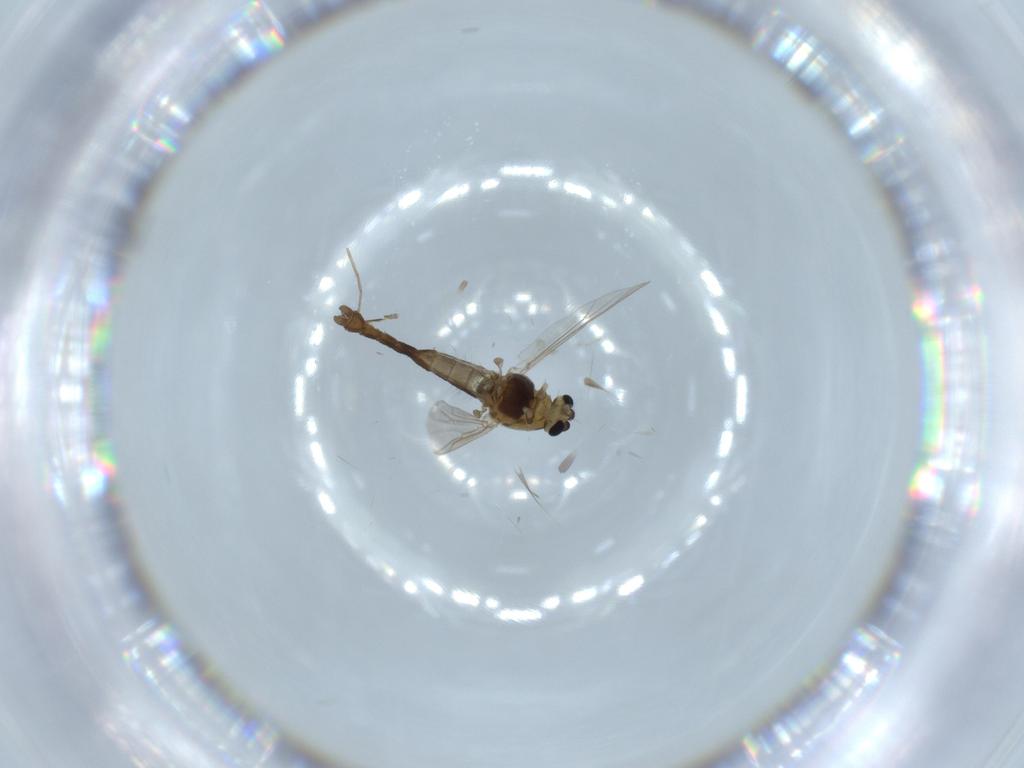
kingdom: Animalia
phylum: Arthropoda
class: Insecta
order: Diptera
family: Chironomidae
